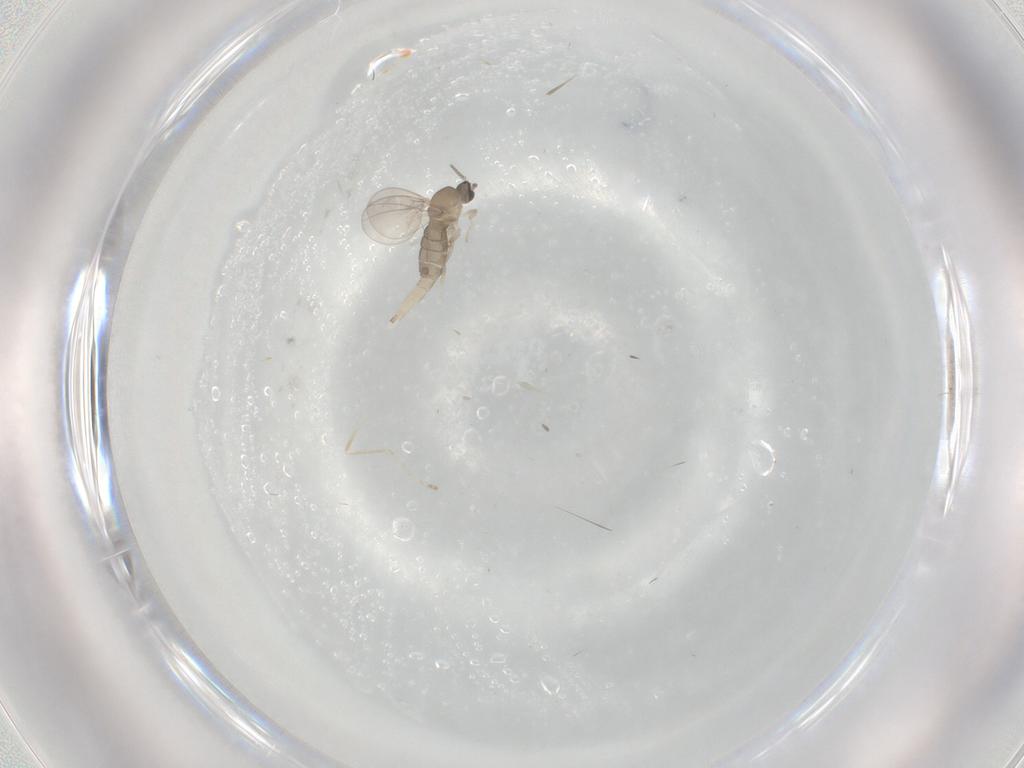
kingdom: Animalia
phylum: Arthropoda
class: Insecta
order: Diptera
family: Cecidomyiidae
